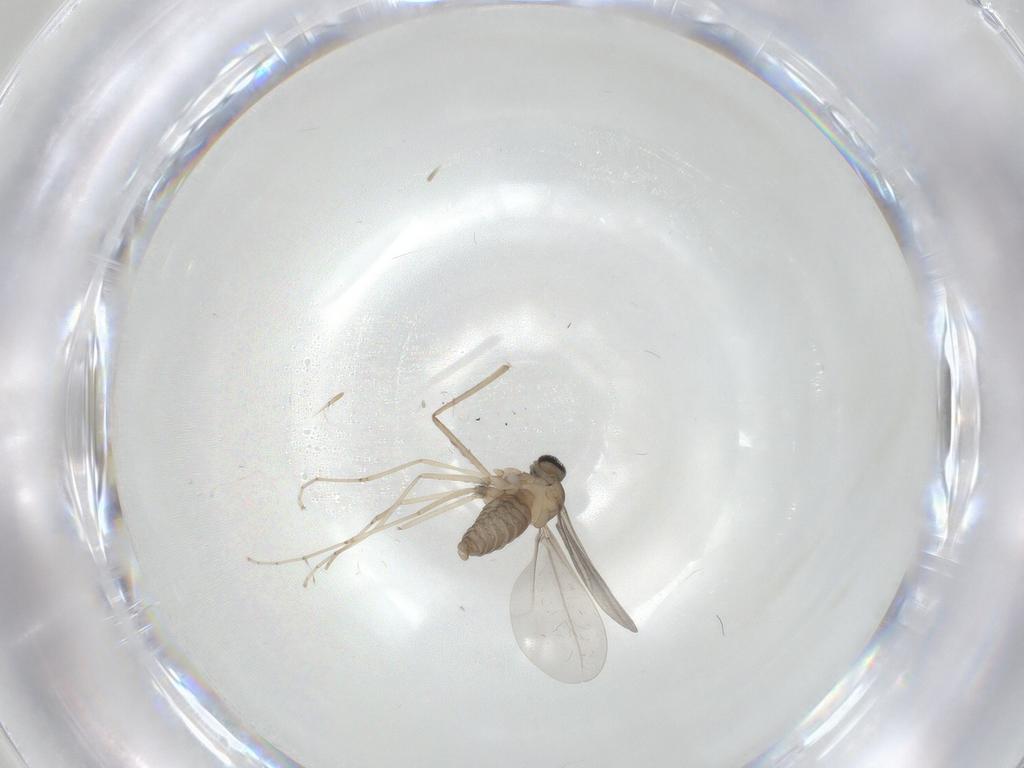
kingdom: Animalia
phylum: Arthropoda
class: Insecta
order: Diptera
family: Cecidomyiidae
